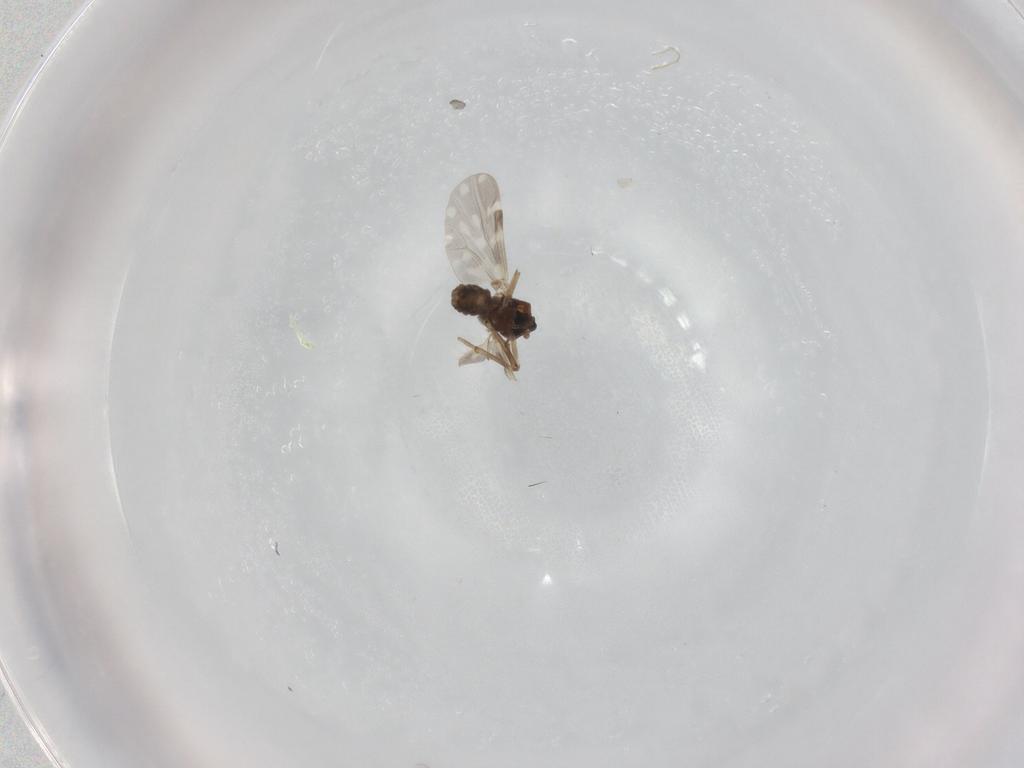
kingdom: Animalia
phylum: Arthropoda
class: Insecta
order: Diptera
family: Ceratopogonidae
